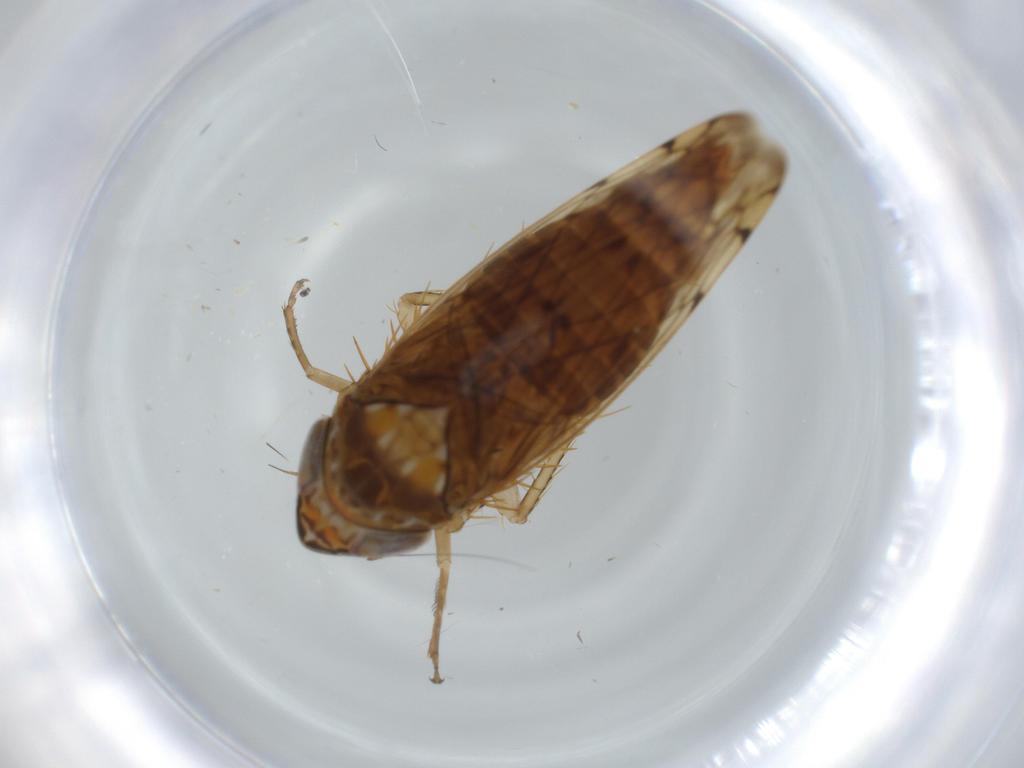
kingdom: Animalia
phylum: Arthropoda
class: Insecta
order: Hemiptera
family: Cicadellidae
